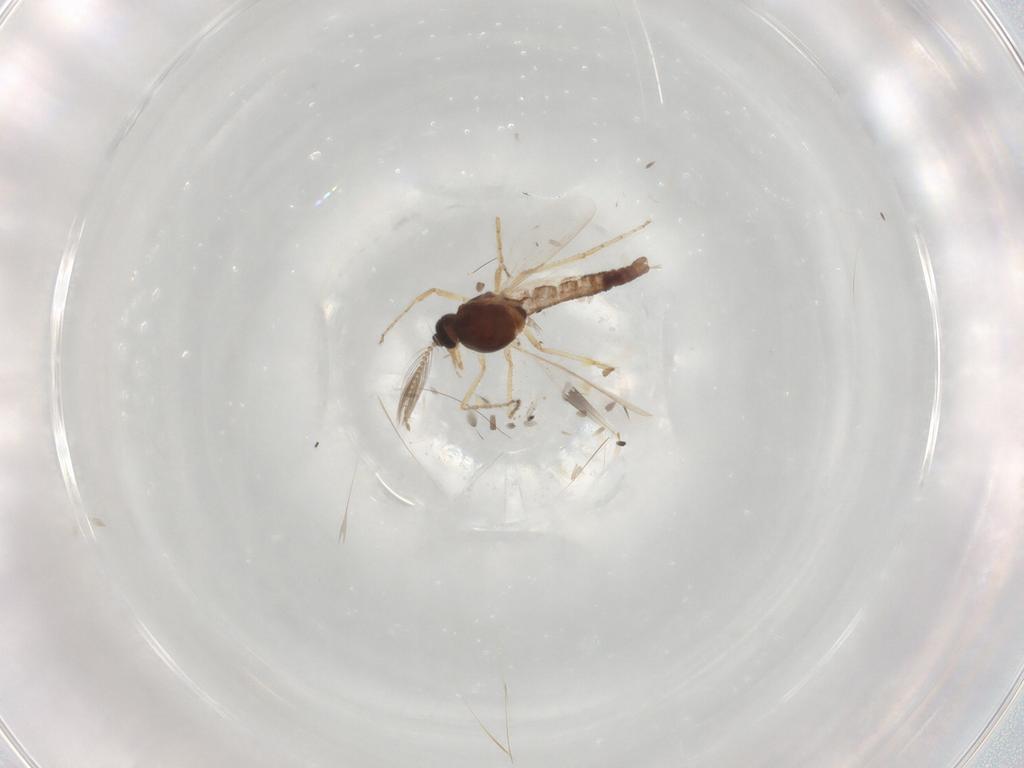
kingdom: Animalia
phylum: Arthropoda
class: Insecta
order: Diptera
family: Ceratopogonidae
